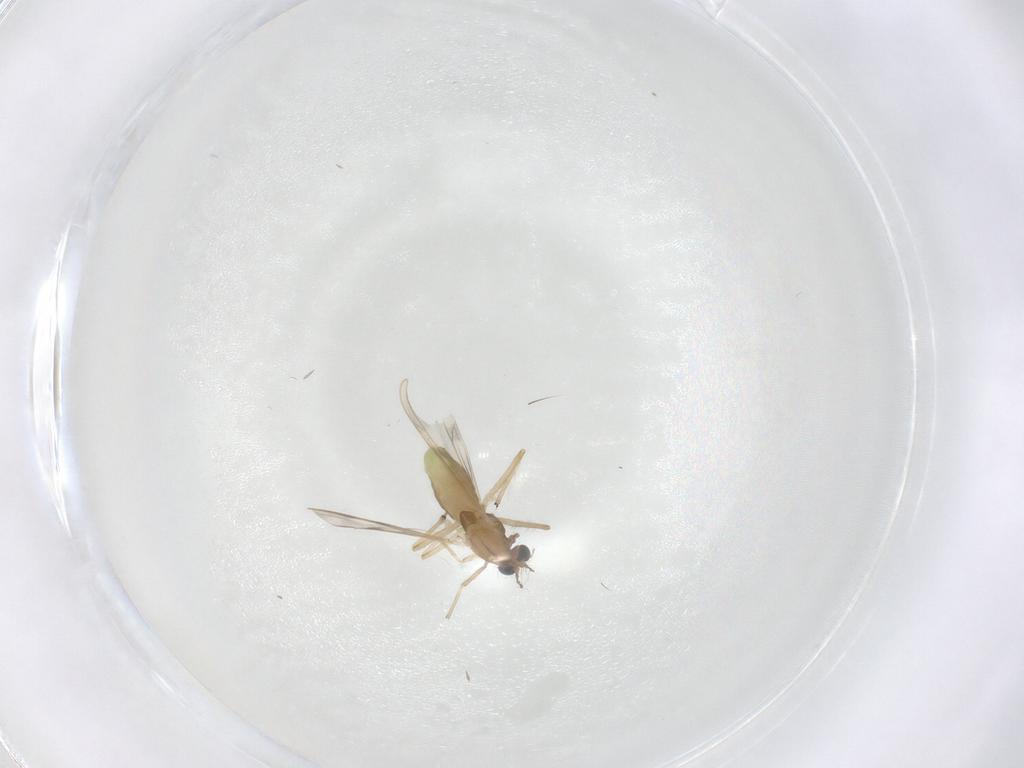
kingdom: Animalia
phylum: Arthropoda
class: Insecta
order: Diptera
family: Chironomidae
